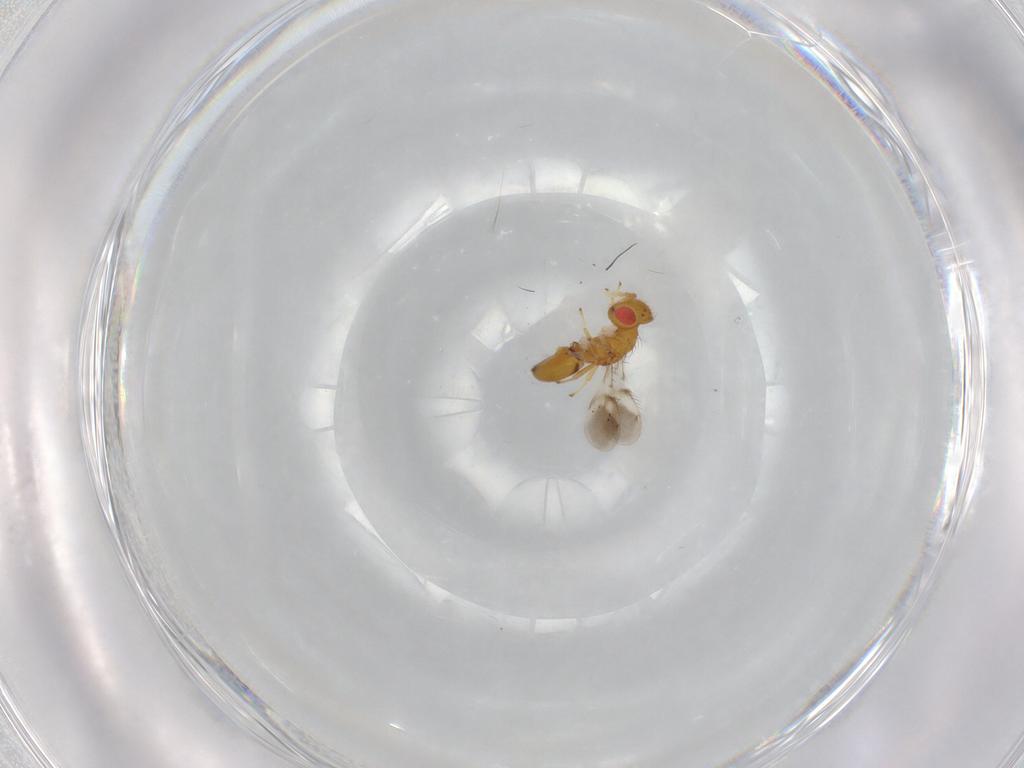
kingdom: Animalia
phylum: Arthropoda
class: Insecta
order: Hymenoptera
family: Eulophidae
